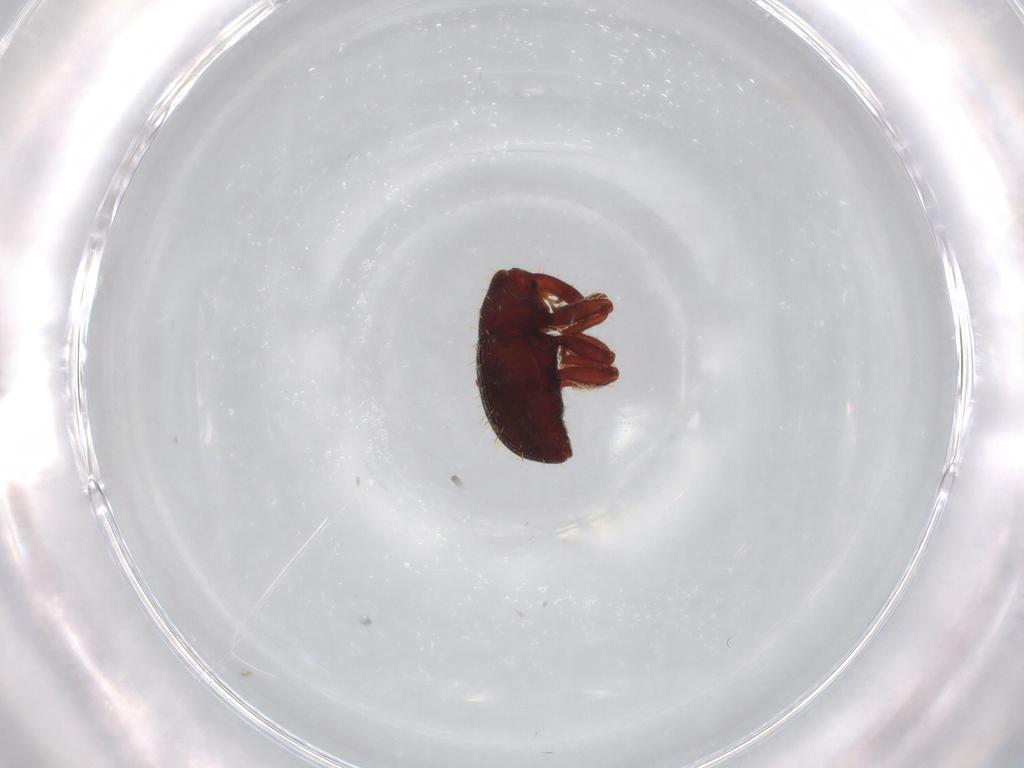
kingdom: Animalia
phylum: Arthropoda
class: Insecta
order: Coleoptera
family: Curculionidae
